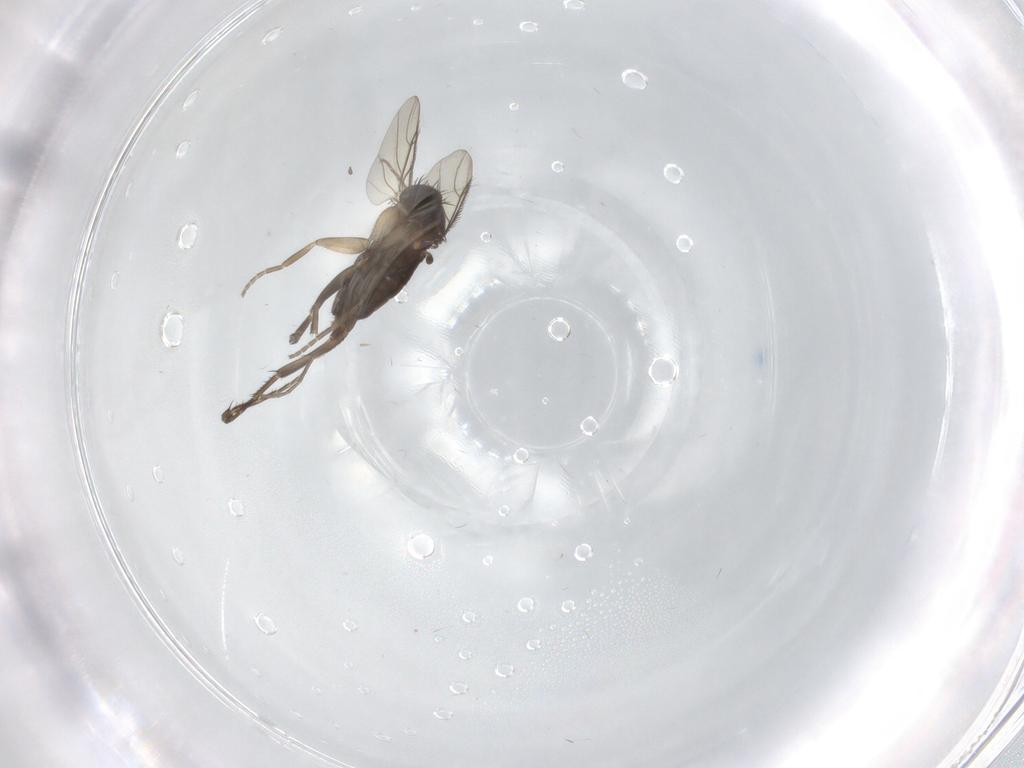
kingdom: Animalia
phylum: Arthropoda
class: Insecta
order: Diptera
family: Phoridae
